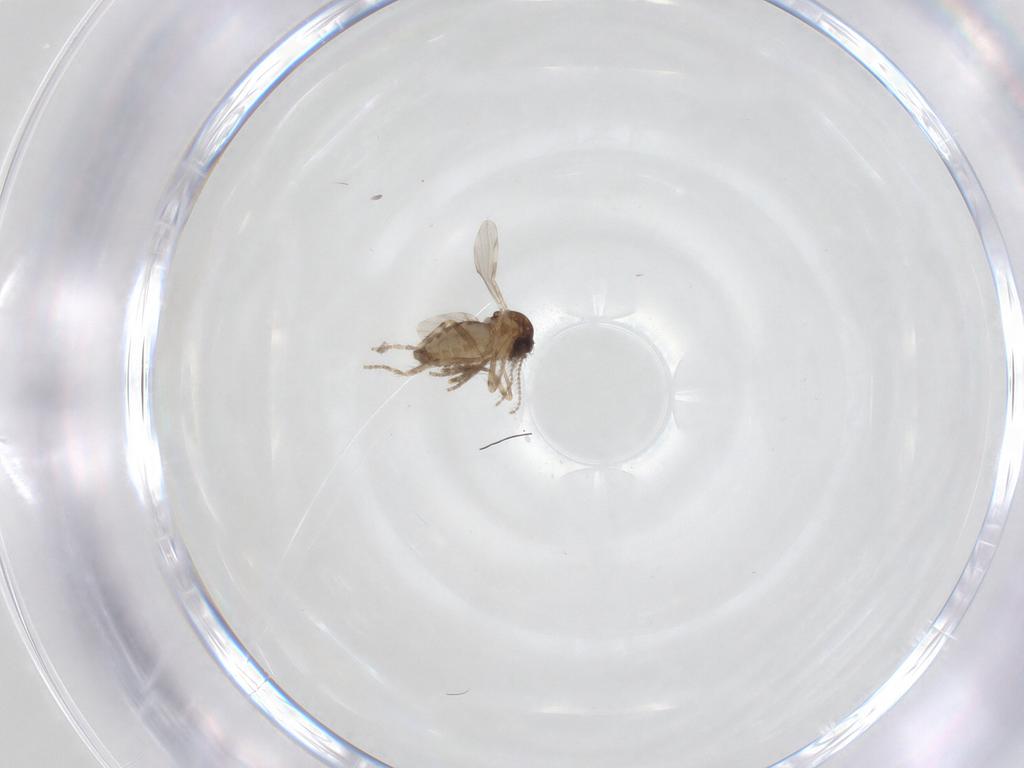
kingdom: Animalia
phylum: Arthropoda
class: Insecta
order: Diptera
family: Ceratopogonidae
